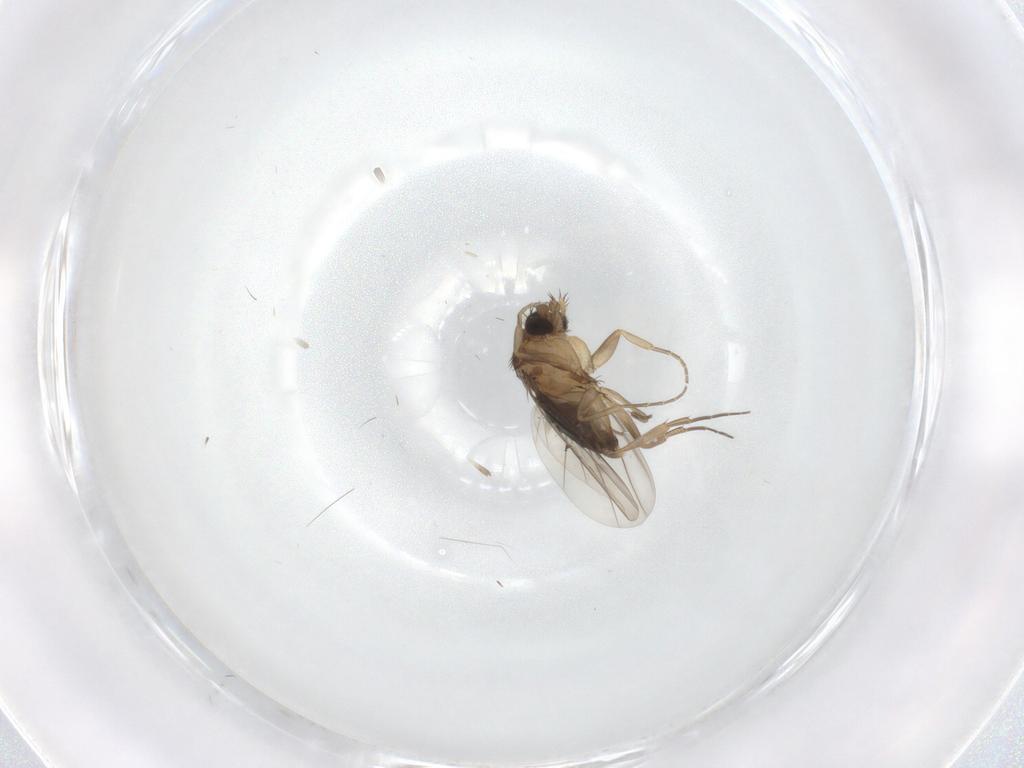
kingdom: Animalia
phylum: Arthropoda
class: Insecta
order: Diptera
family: Phoridae
